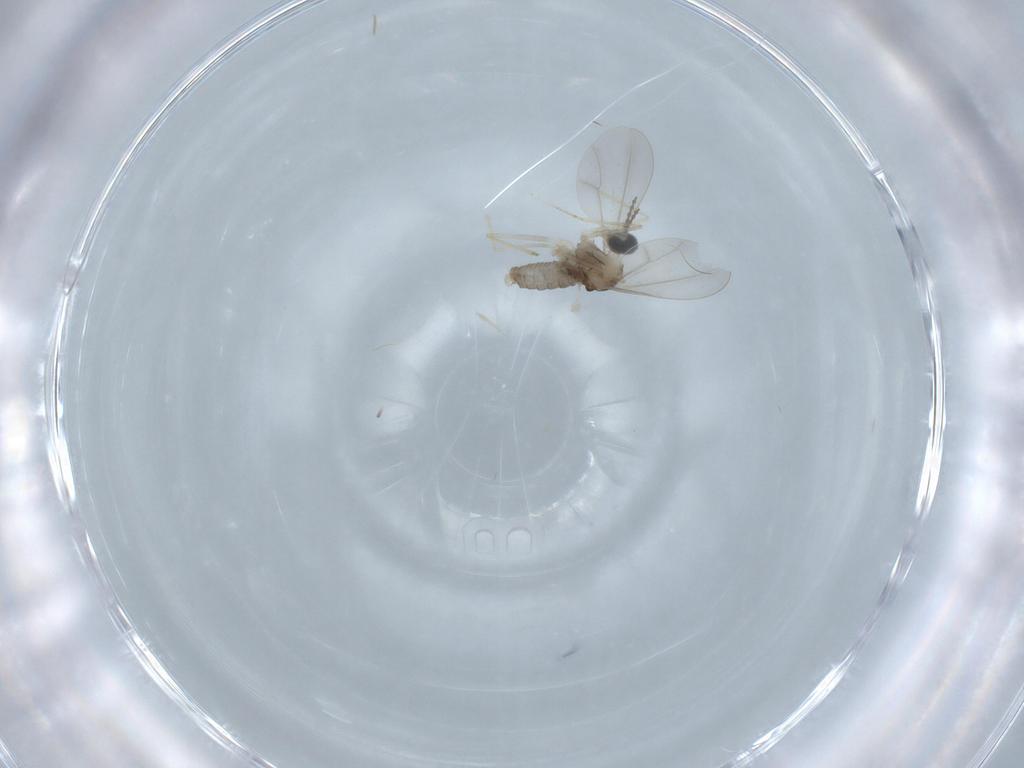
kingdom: Animalia
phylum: Arthropoda
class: Insecta
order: Diptera
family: Cecidomyiidae
